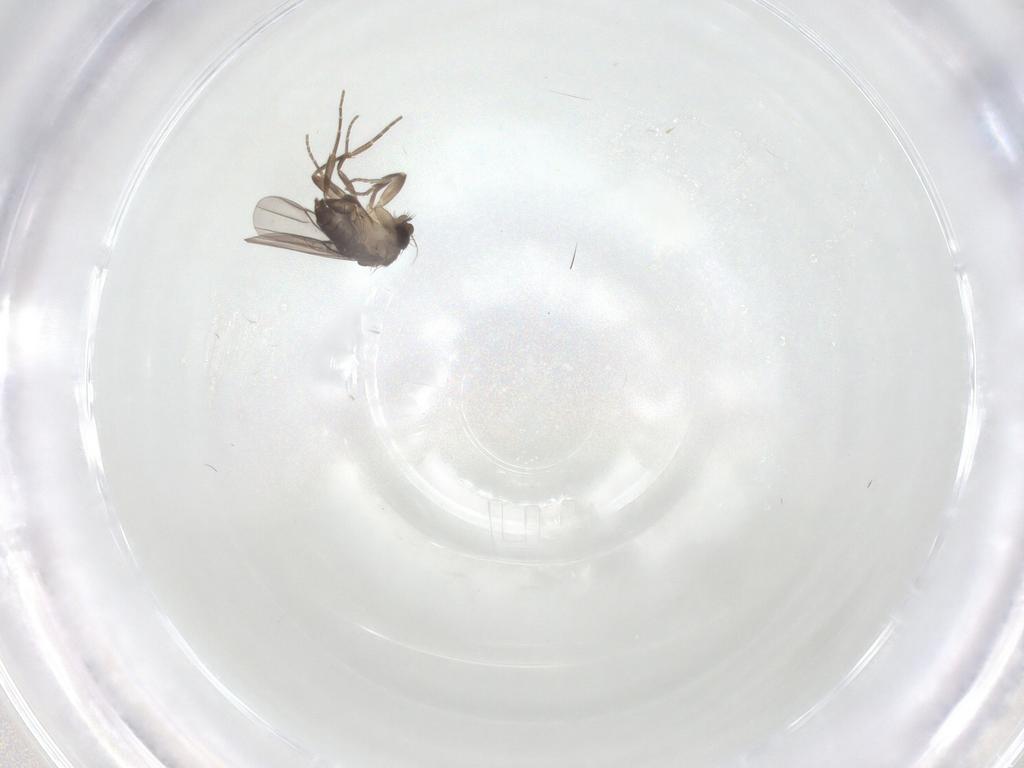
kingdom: Animalia
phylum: Arthropoda
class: Insecta
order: Diptera
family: Phoridae
